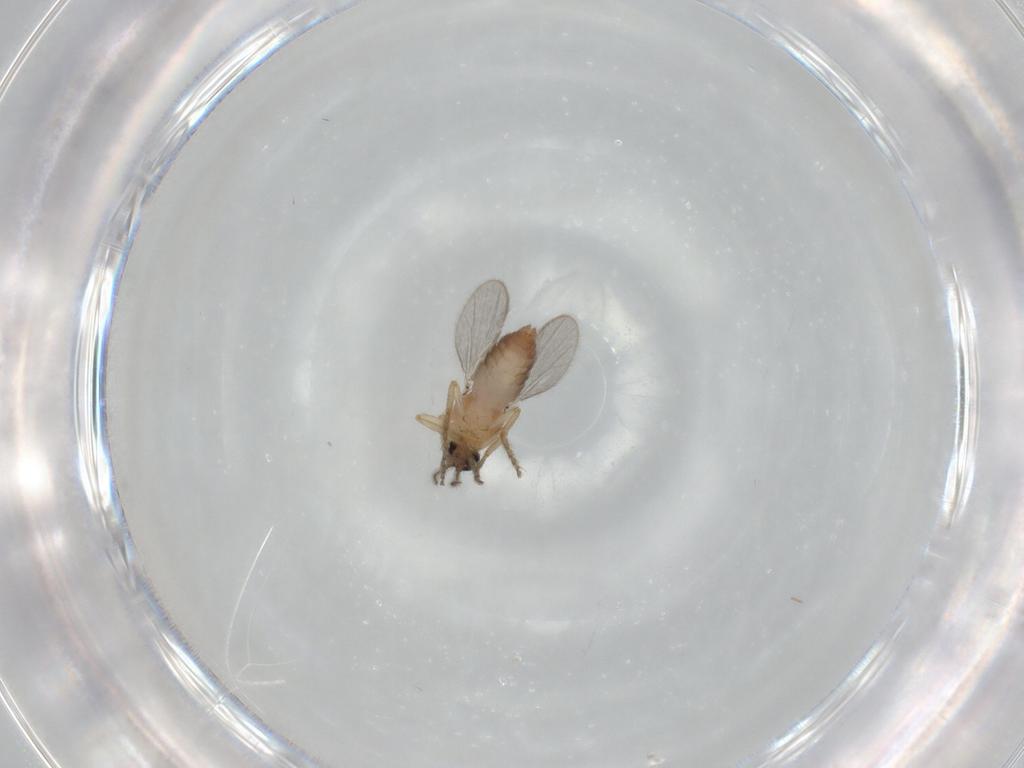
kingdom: Animalia
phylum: Arthropoda
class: Insecta
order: Diptera
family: Ceratopogonidae
